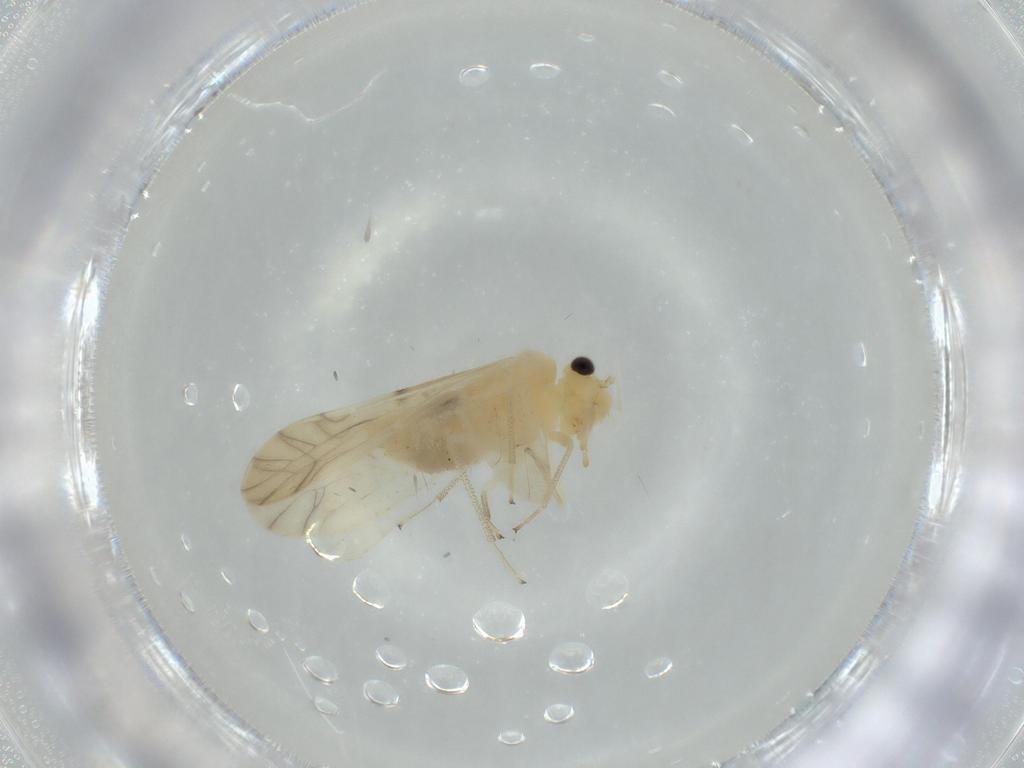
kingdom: Animalia
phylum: Arthropoda
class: Insecta
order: Psocodea
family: Caeciliusidae
